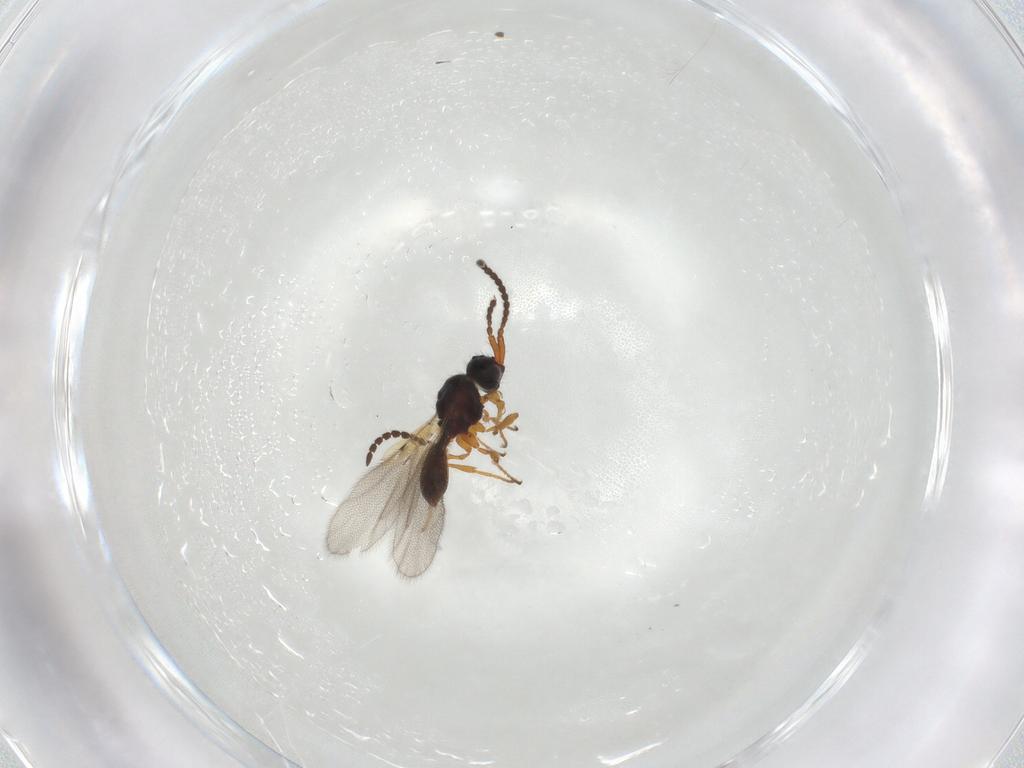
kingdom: Animalia
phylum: Arthropoda
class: Insecta
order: Hymenoptera
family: Diapriidae
